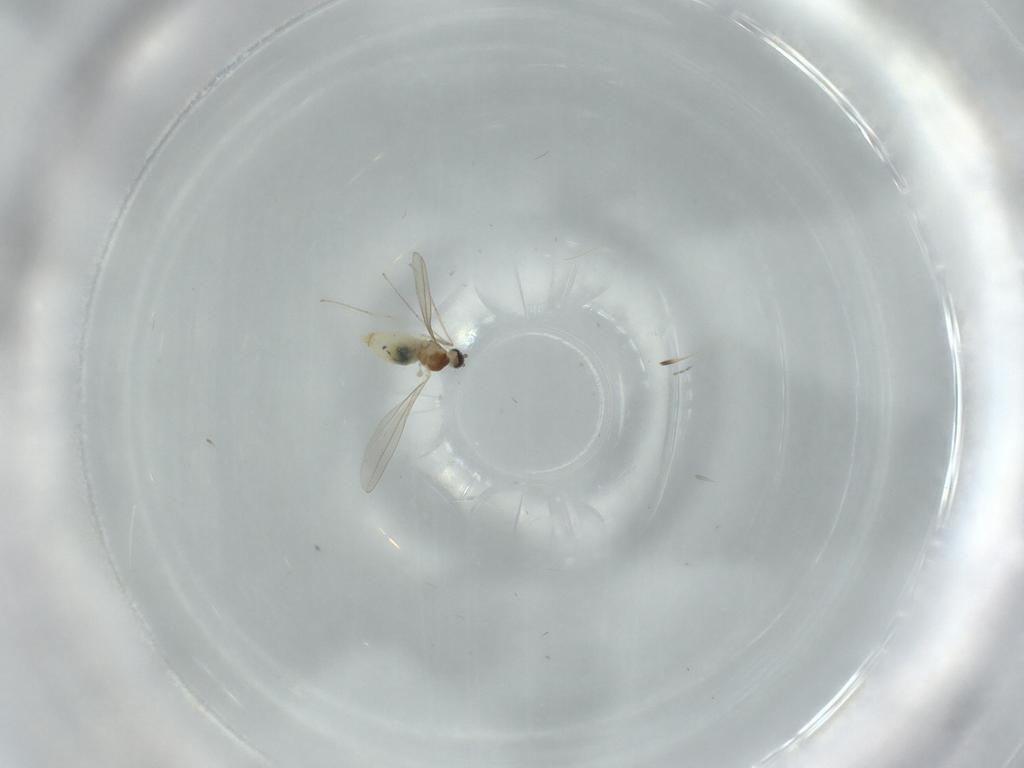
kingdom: Animalia
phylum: Arthropoda
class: Insecta
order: Diptera
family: Cecidomyiidae
